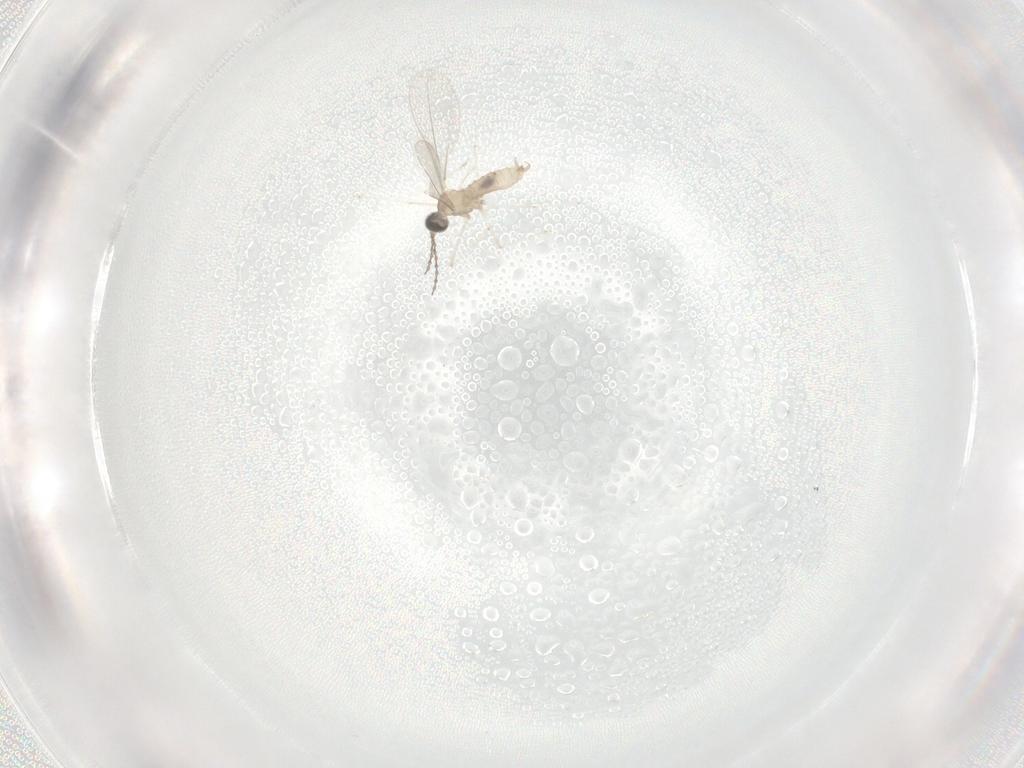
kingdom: Animalia
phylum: Arthropoda
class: Insecta
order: Diptera
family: Cecidomyiidae
